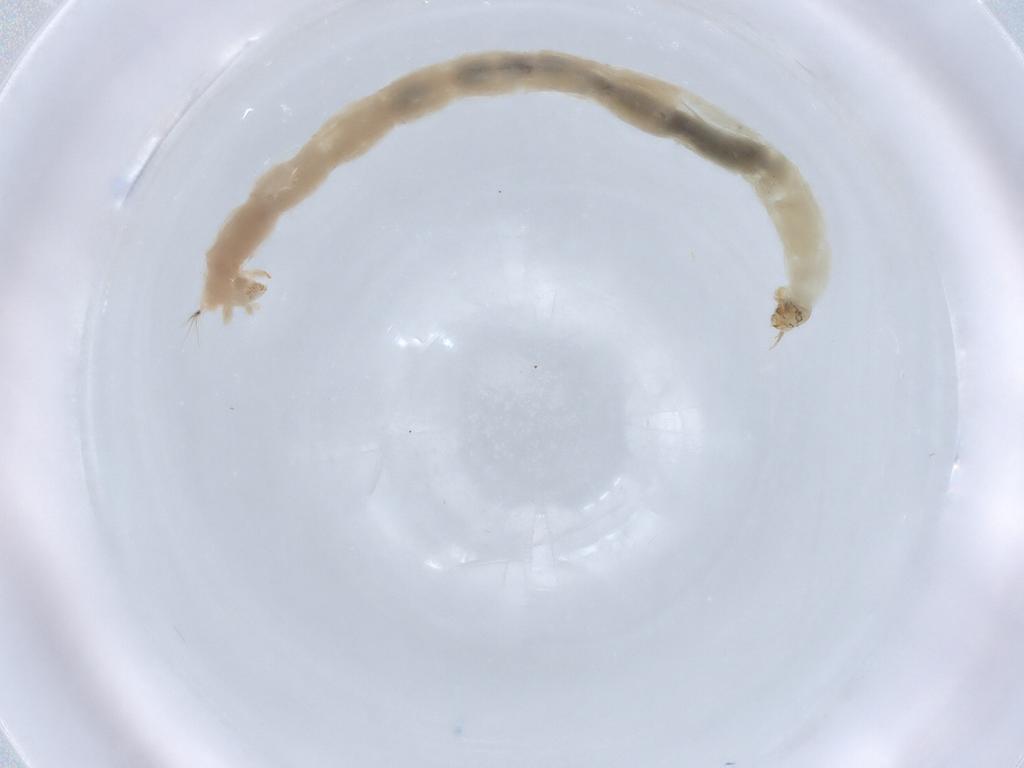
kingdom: Animalia
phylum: Arthropoda
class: Insecta
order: Diptera
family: Chironomidae
